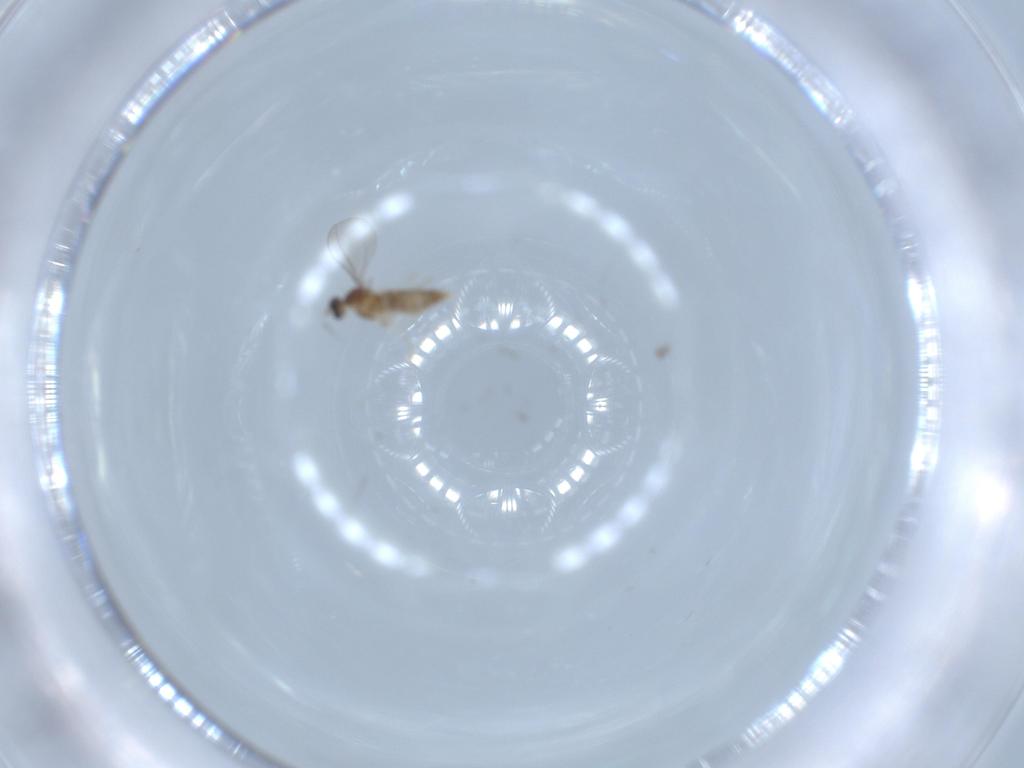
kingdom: Animalia
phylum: Arthropoda
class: Insecta
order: Diptera
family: Cecidomyiidae
